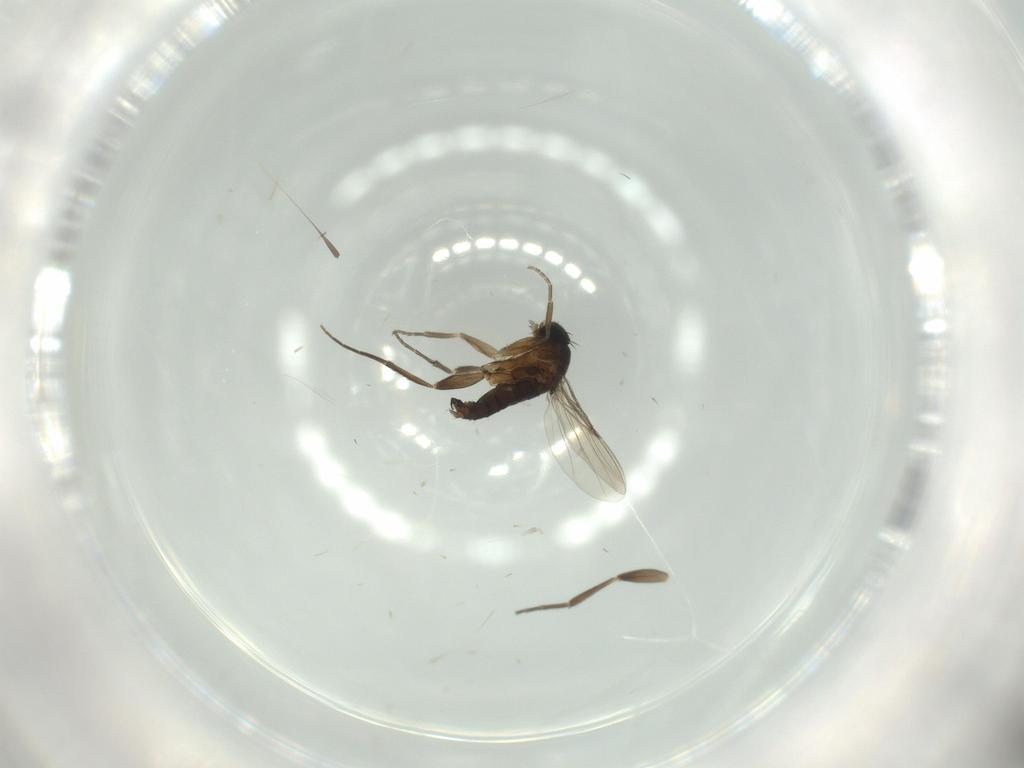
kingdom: Animalia
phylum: Arthropoda
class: Insecta
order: Diptera
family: Phoridae
